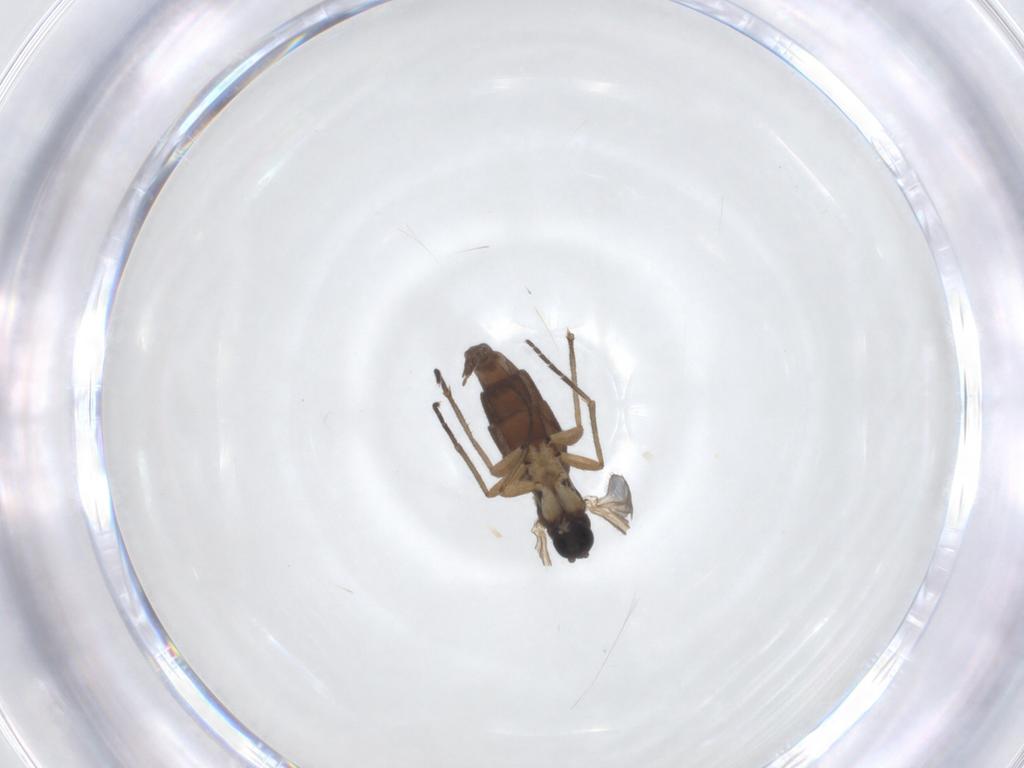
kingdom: Animalia
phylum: Arthropoda
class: Insecta
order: Diptera
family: Sciaridae
